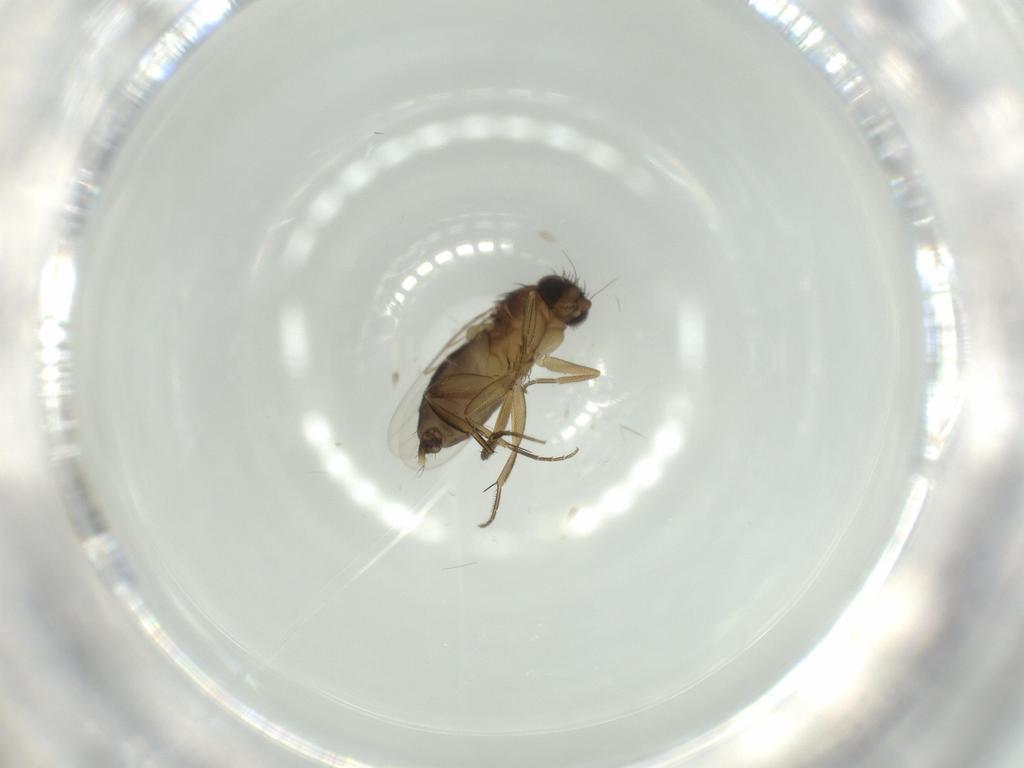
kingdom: Animalia
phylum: Arthropoda
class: Insecta
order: Diptera
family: Phoridae
